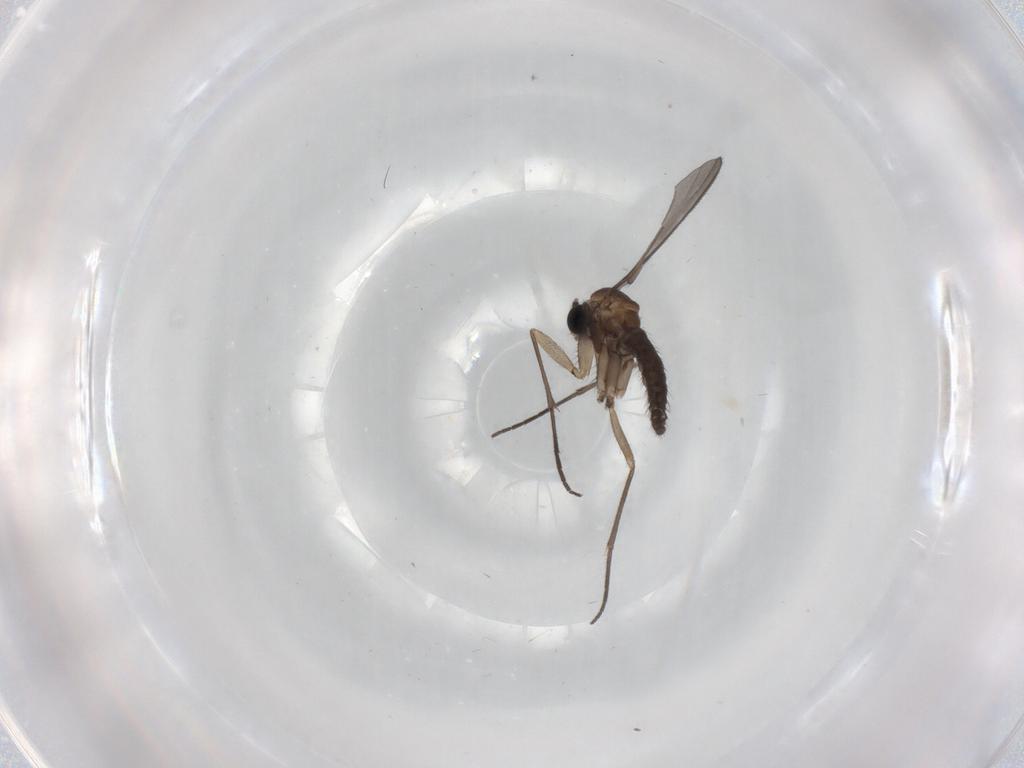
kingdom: Animalia
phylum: Arthropoda
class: Insecta
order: Diptera
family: Sciaridae
